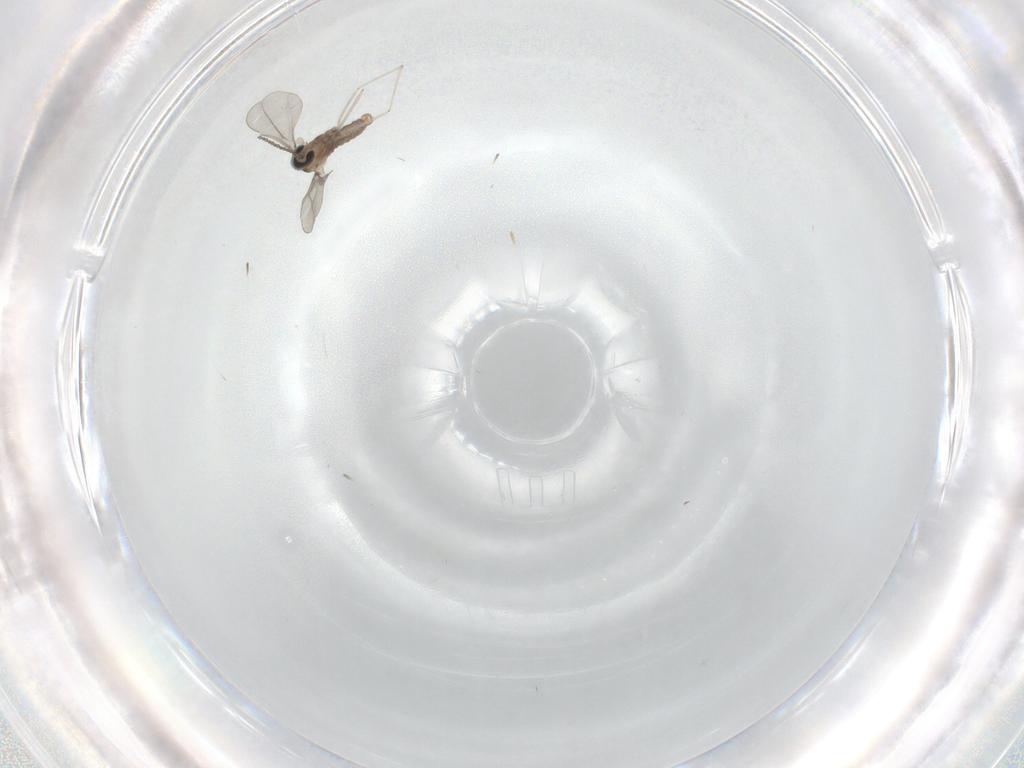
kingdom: Animalia
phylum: Arthropoda
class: Insecta
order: Diptera
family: Cecidomyiidae
